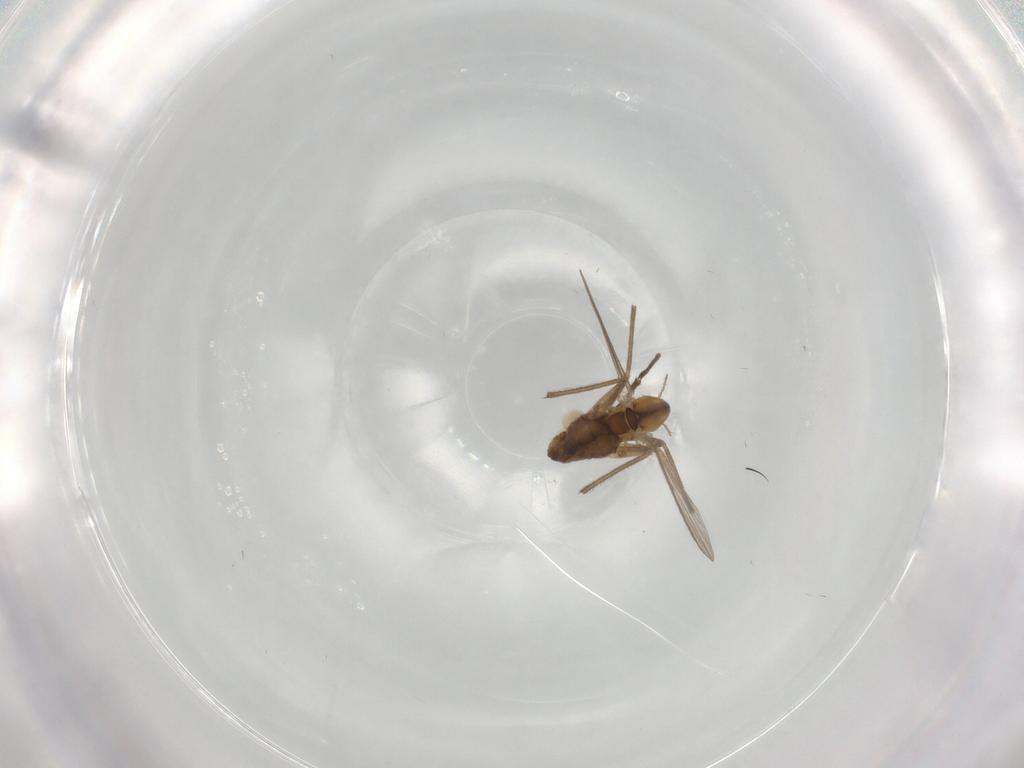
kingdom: Animalia
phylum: Arthropoda
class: Insecta
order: Diptera
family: Chironomidae
